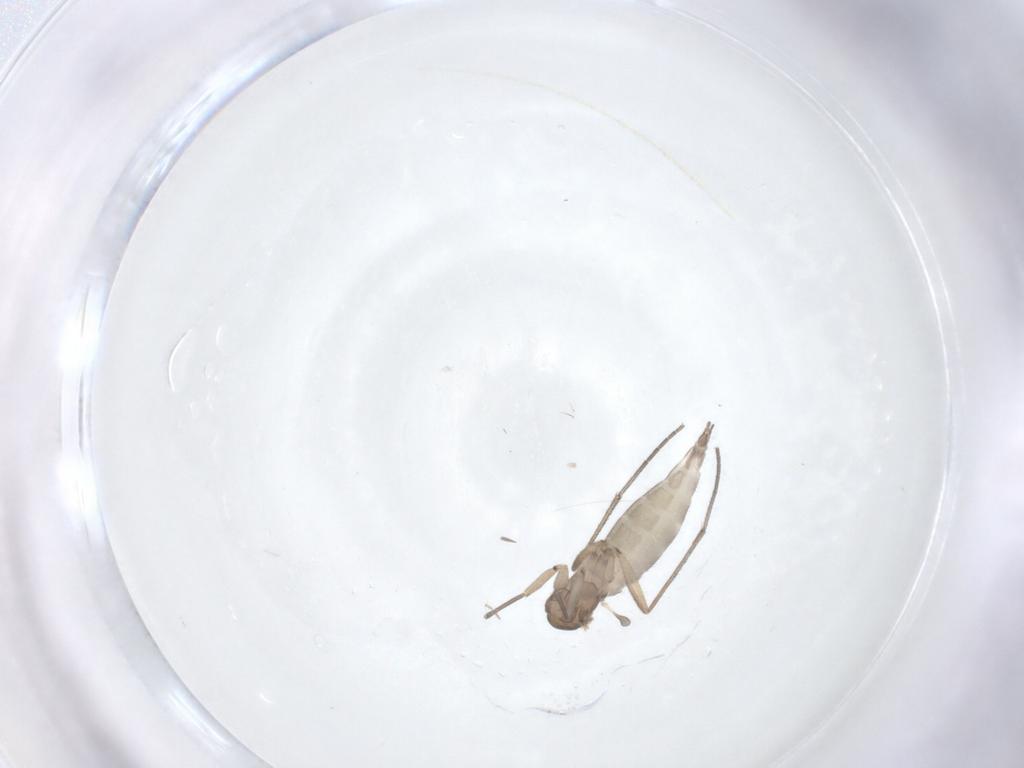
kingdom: Animalia
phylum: Arthropoda
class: Insecta
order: Diptera
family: Sciaridae
